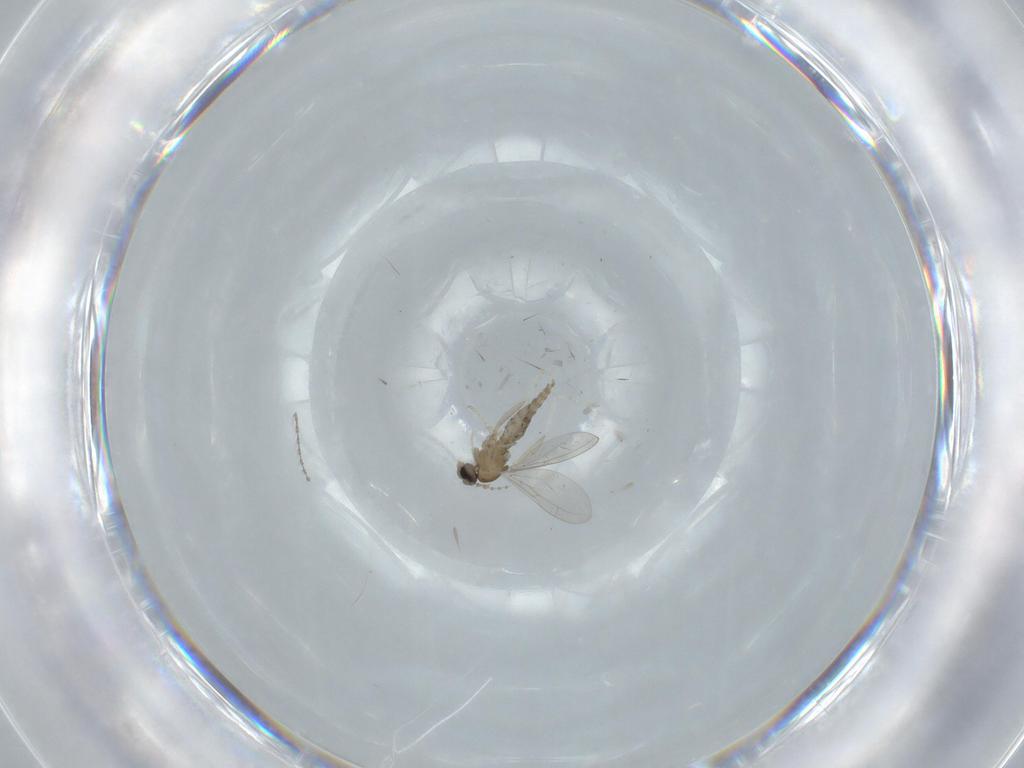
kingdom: Animalia
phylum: Arthropoda
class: Insecta
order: Diptera
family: Cecidomyiidae
